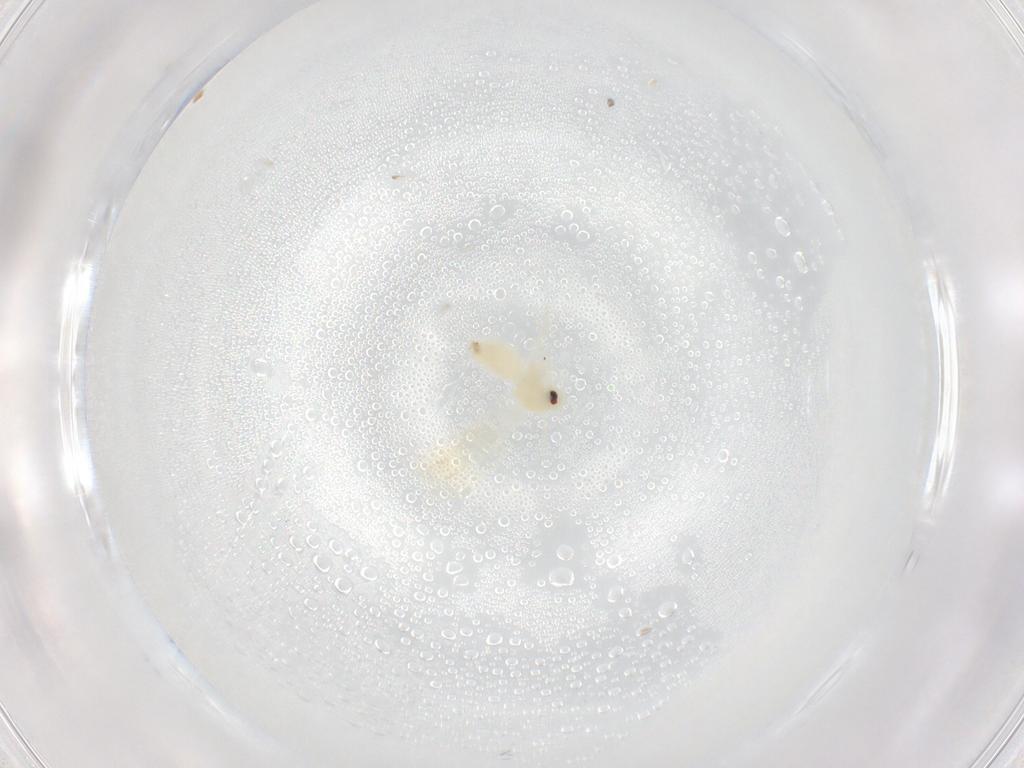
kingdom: Animalia
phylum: Arthropoda
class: Insecta
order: Hemiptera
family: Aleyrodidae
